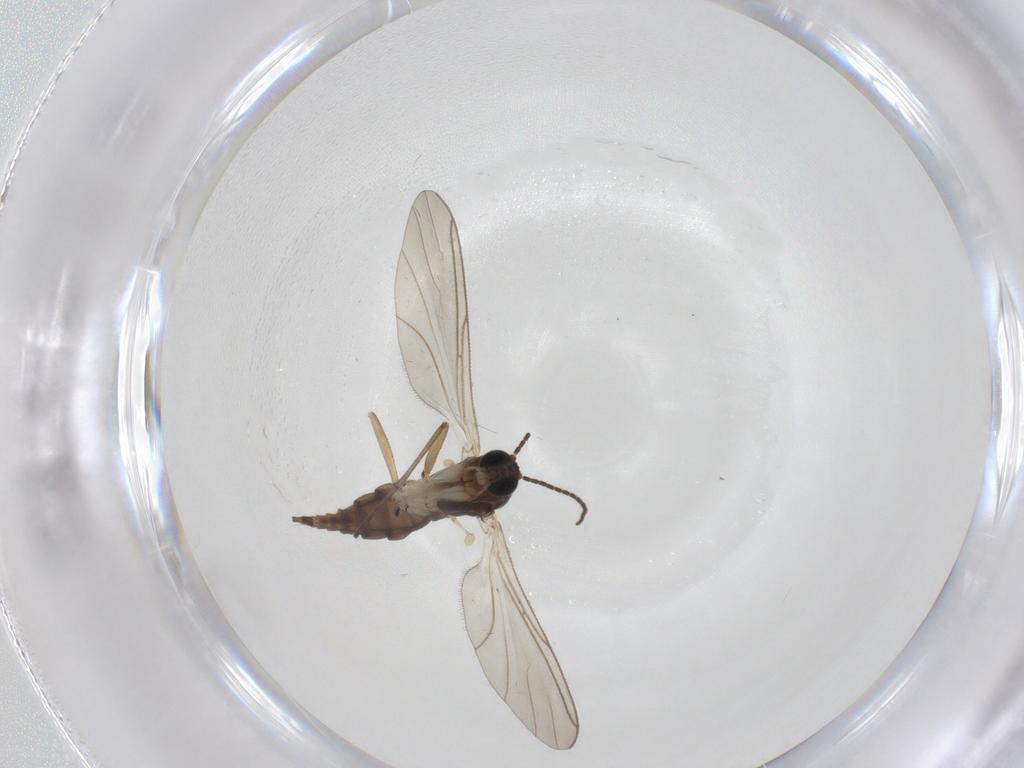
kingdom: Animalia
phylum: Arthropoda
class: Insecta
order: Diptera
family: Sciaridae
